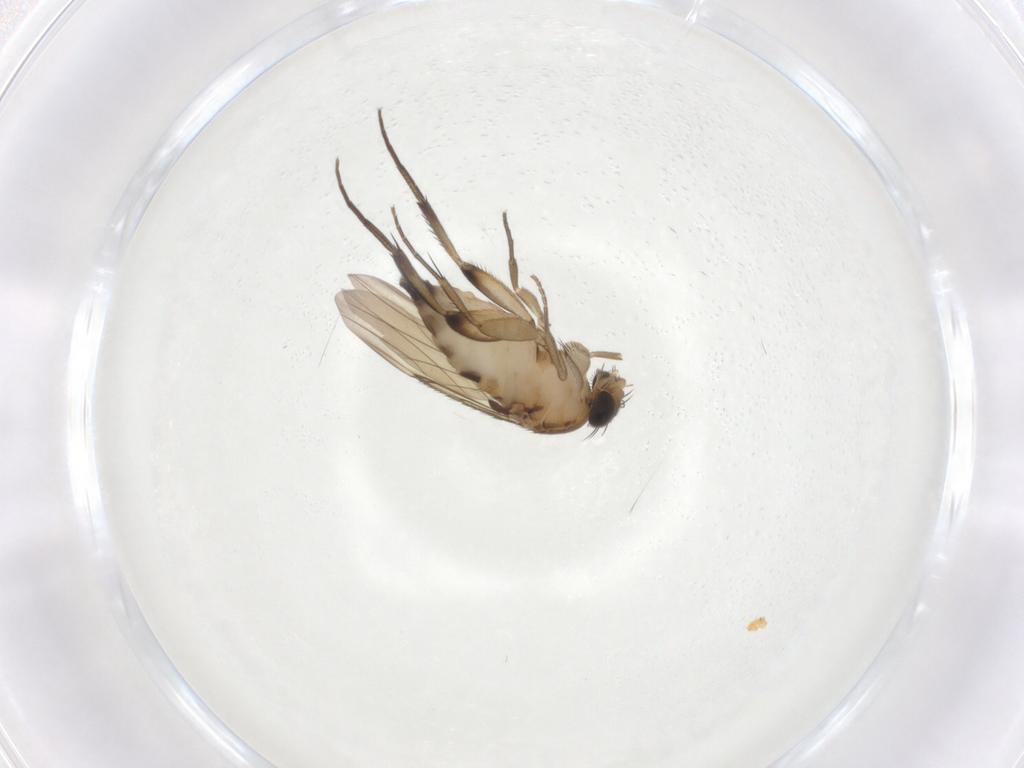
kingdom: Animalia
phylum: Arthropoda
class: Insecta
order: Diptera
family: Phoridae
